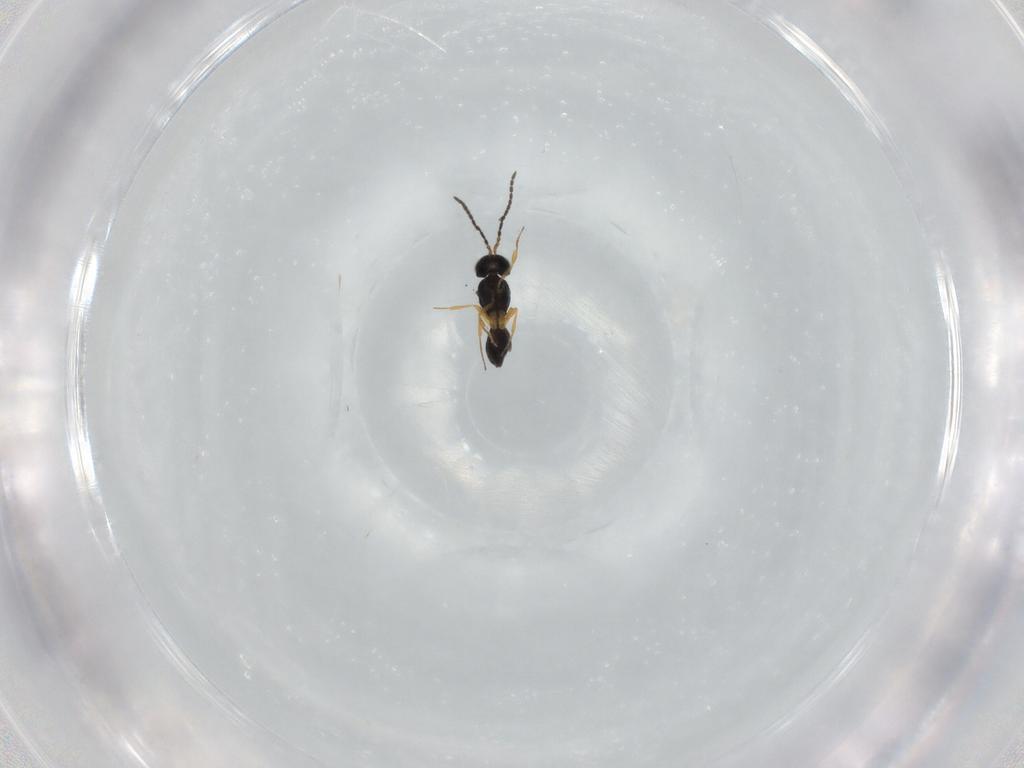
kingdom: Animalia
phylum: Arthropoda
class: Insecta
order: Hymenoptera
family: Scelionidae
